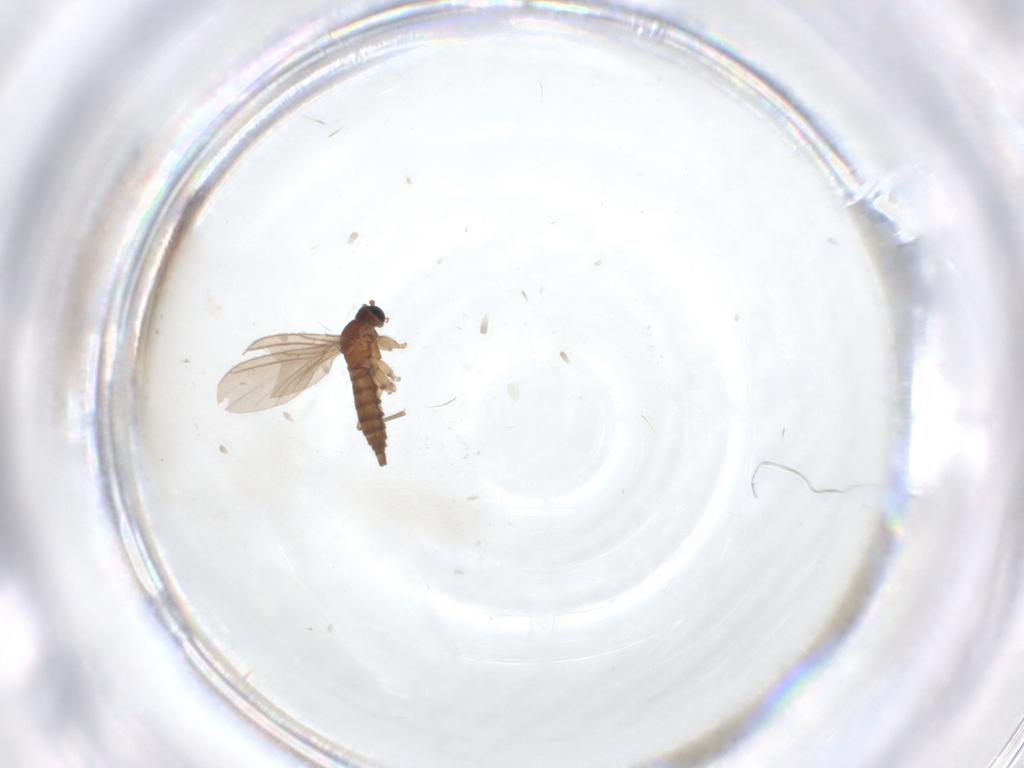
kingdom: Animalia
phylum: Arthropoda
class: Insecta
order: Diptera
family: Sciaridae
